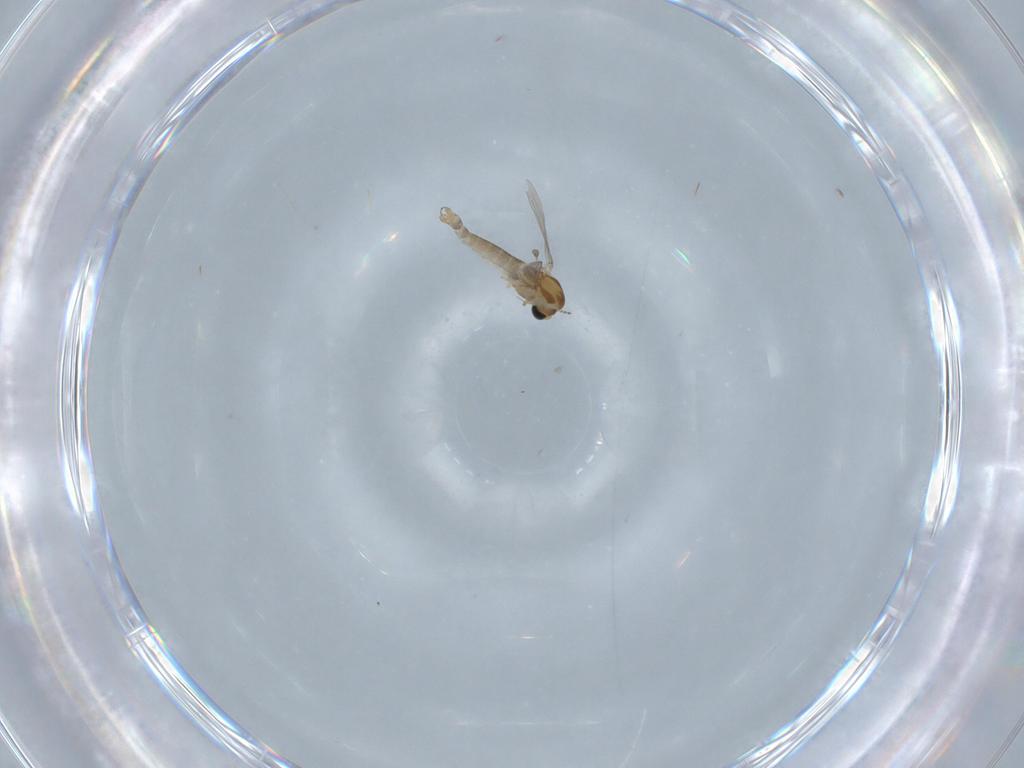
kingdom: Animalia
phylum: Arthropoda
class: Insecta
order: Diptera
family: Chironomidae
